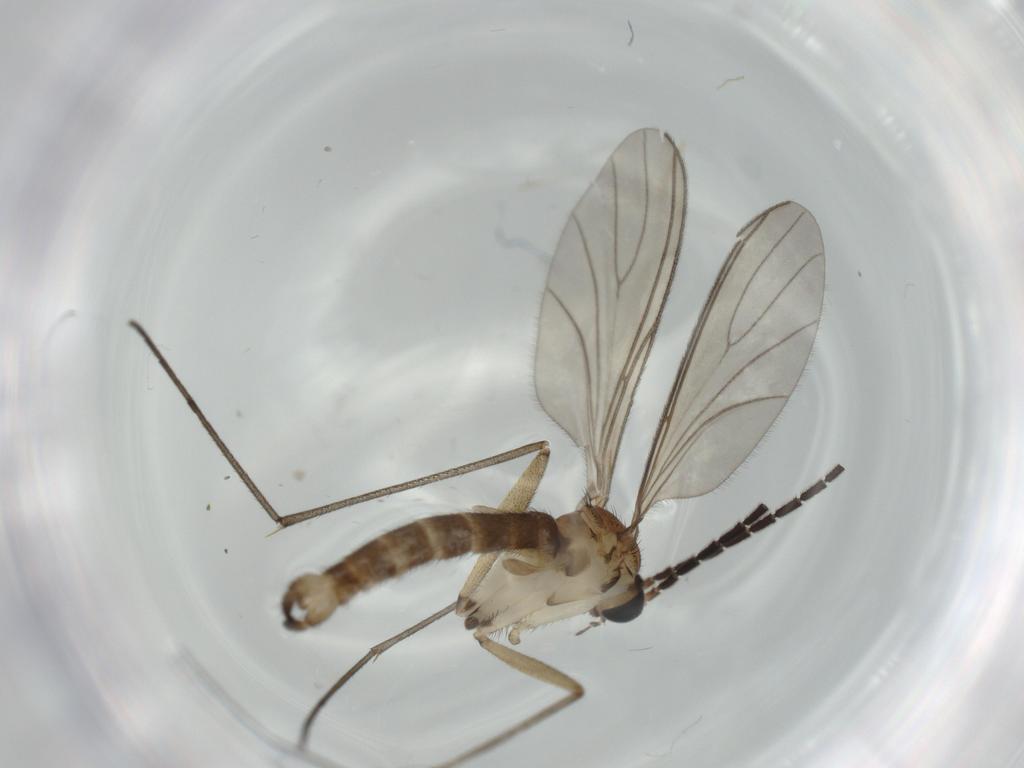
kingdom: Animalia
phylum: Arthropoda
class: Insecta
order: Diptera
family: Sciaridae
